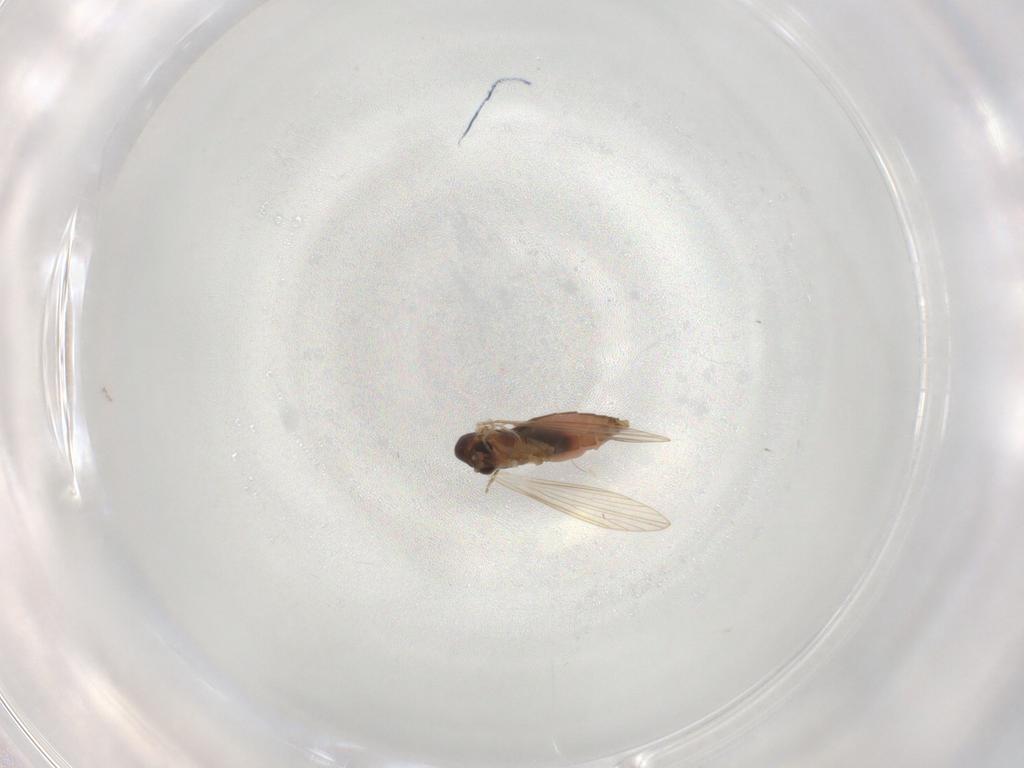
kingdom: Animalia
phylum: Arthropoda
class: Insecta
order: Diptera
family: Psychodidae
